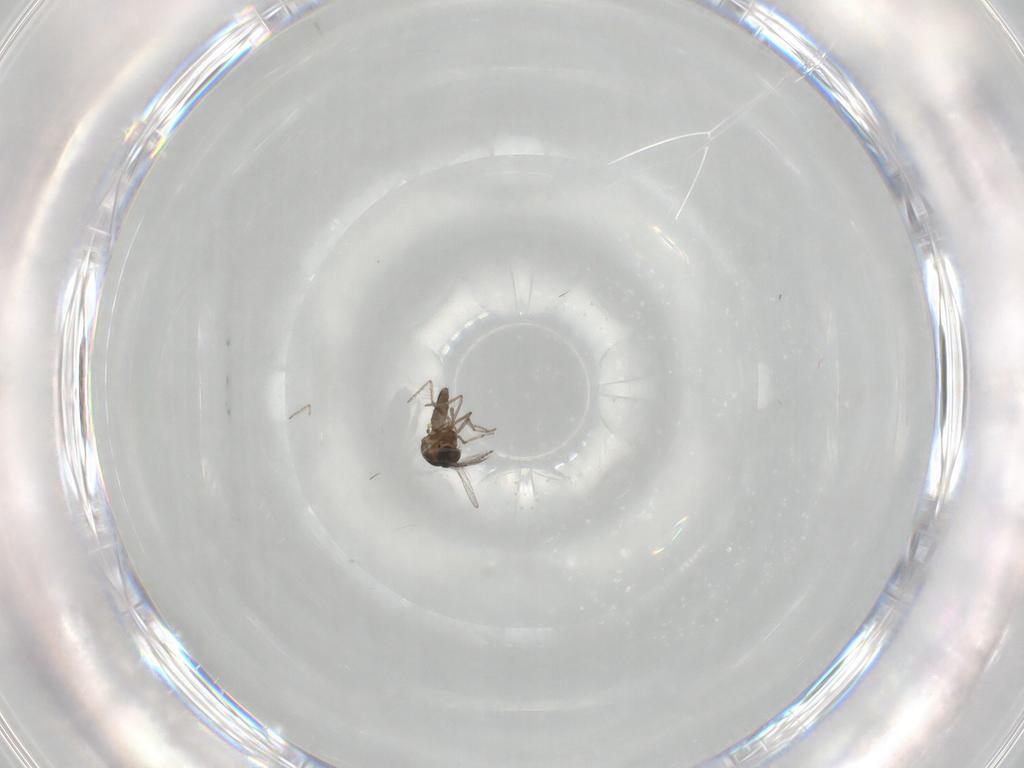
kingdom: Animalia
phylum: Arthropoda
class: Insecta
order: Diptera
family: Ceratopogonidae
